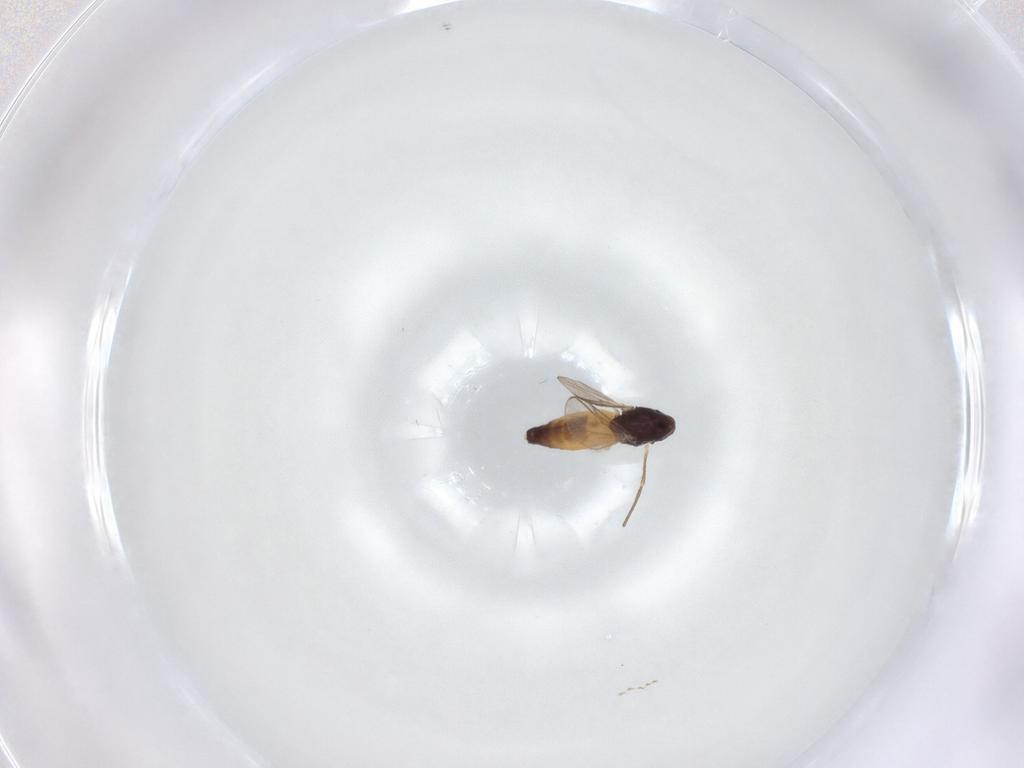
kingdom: Animalia
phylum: Arthropoda
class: Insecta
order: Diptera
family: Chironomidae
